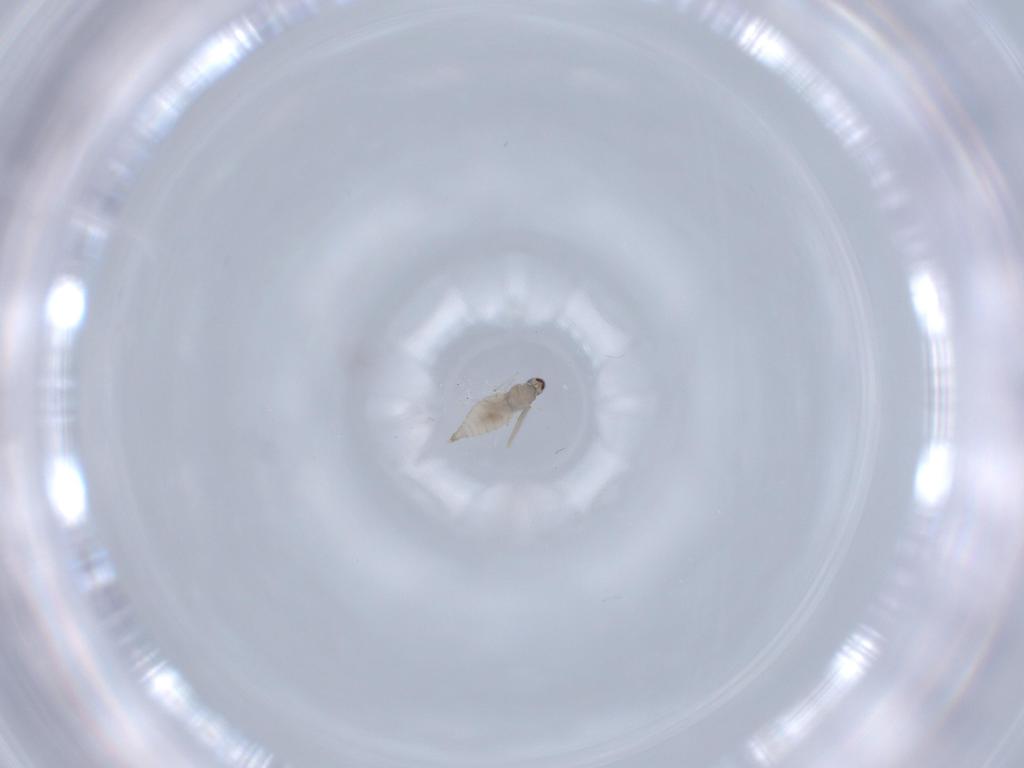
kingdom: Animalia
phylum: Arthropoda
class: Insecta
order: Diptera
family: Cecidomyiidae
